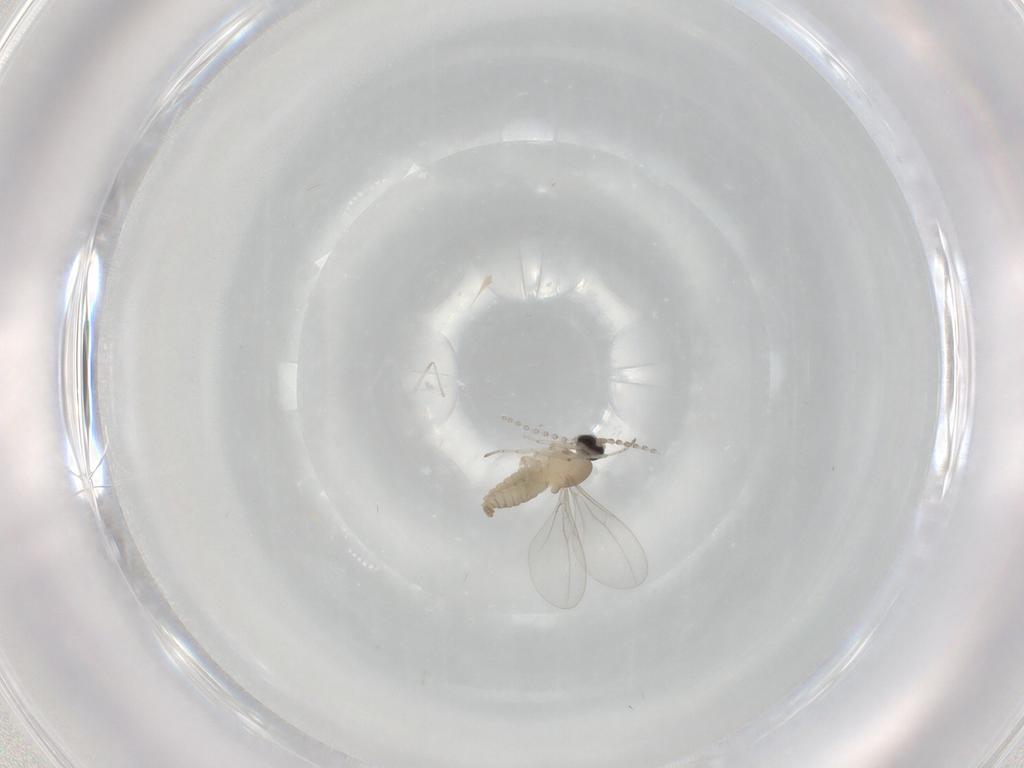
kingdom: Animalia
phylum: Arthropoda
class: Insecta
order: Diptera
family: Cecidomyiidae
